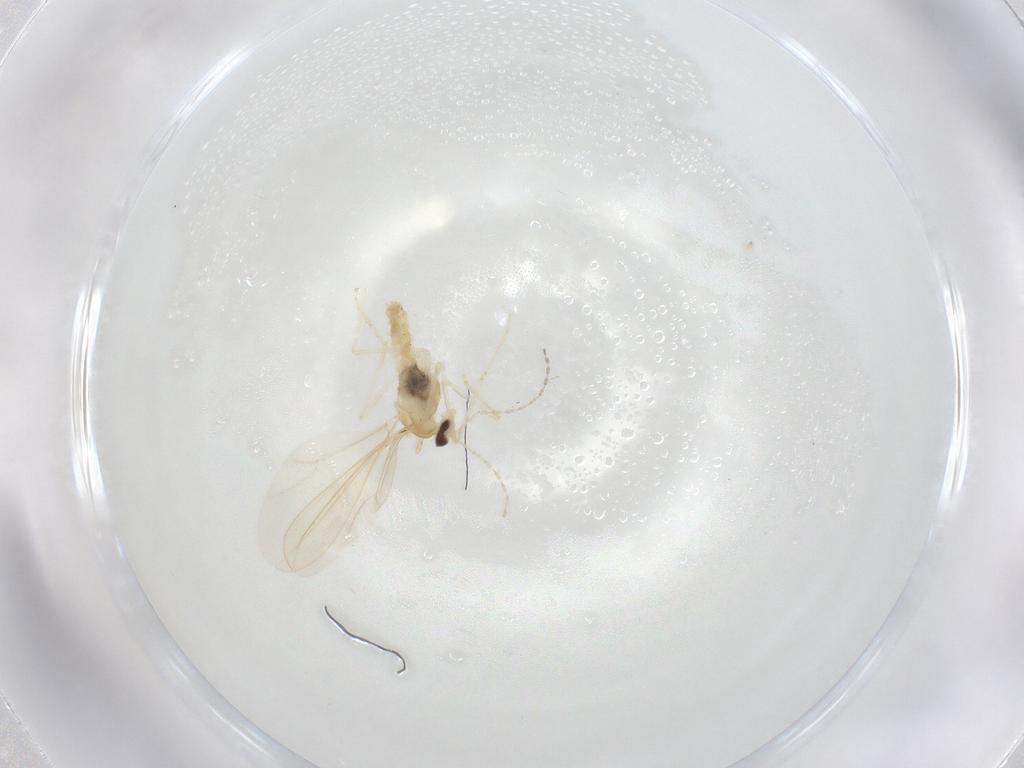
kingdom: Animalia
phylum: Arthropoda
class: Insecta
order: Diptera
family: Cecidomyiidae
